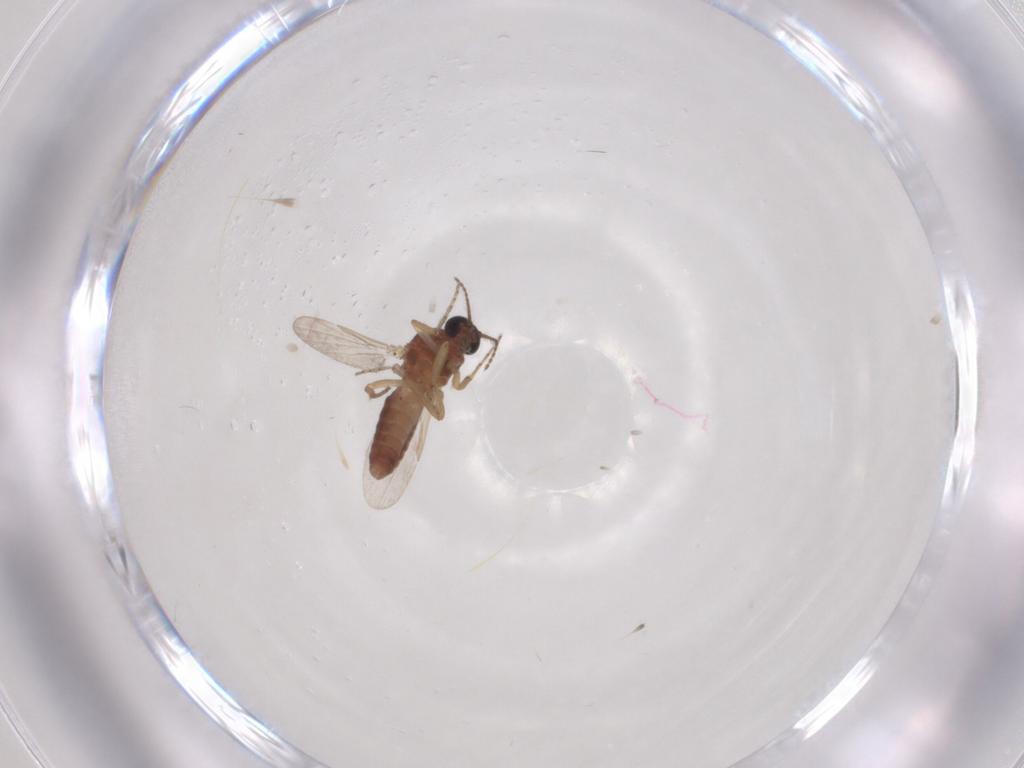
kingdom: Animalia
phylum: Arthropoda
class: Insecta
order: Diptera
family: Ceratopogonidae
